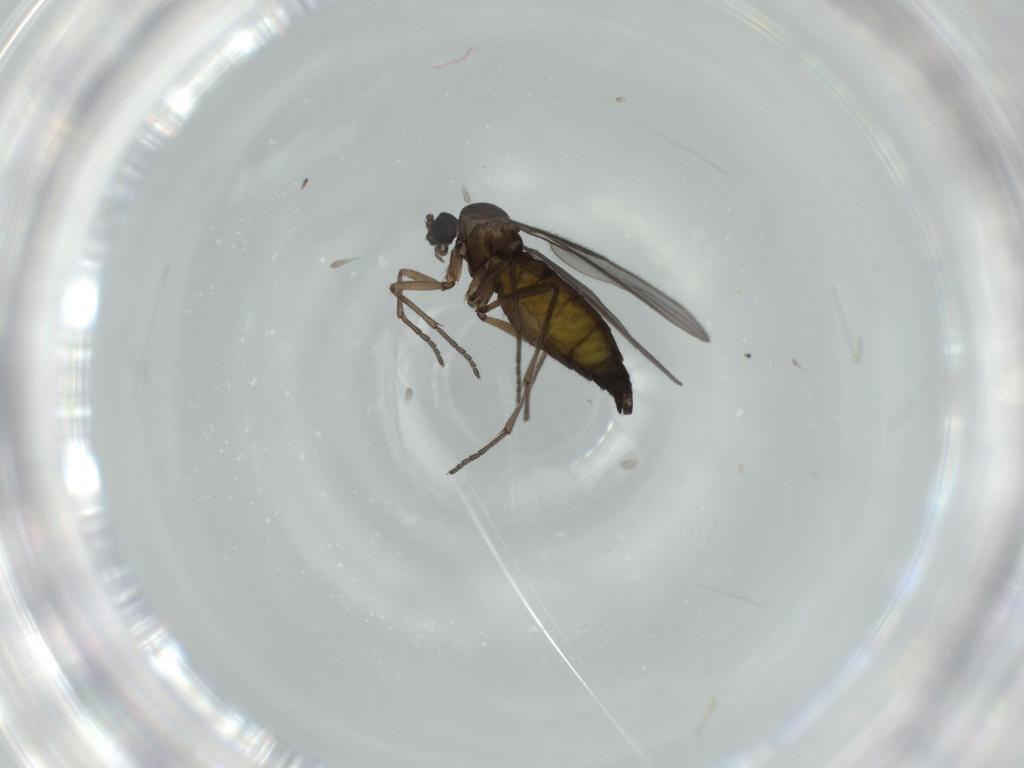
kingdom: Animalia
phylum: Arthropoda
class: Insecta
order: Diptera
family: Sciaridae
